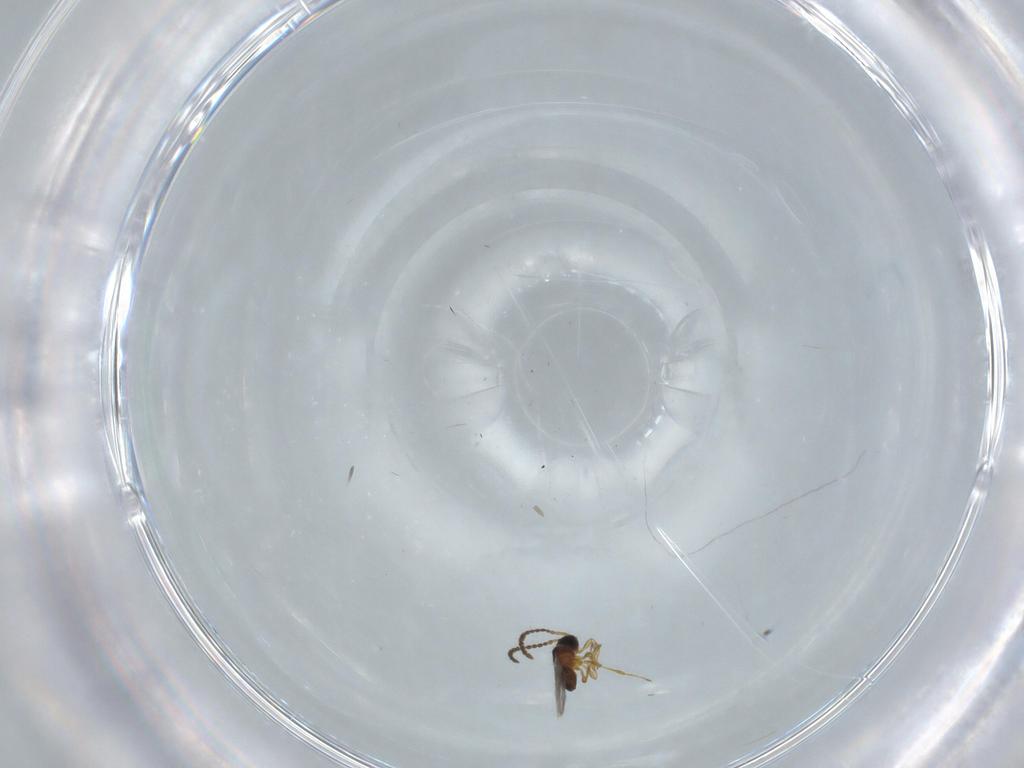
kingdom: Animalia
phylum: Arthropoda
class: Insecta
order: Hymenoptera
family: Diapriidae
